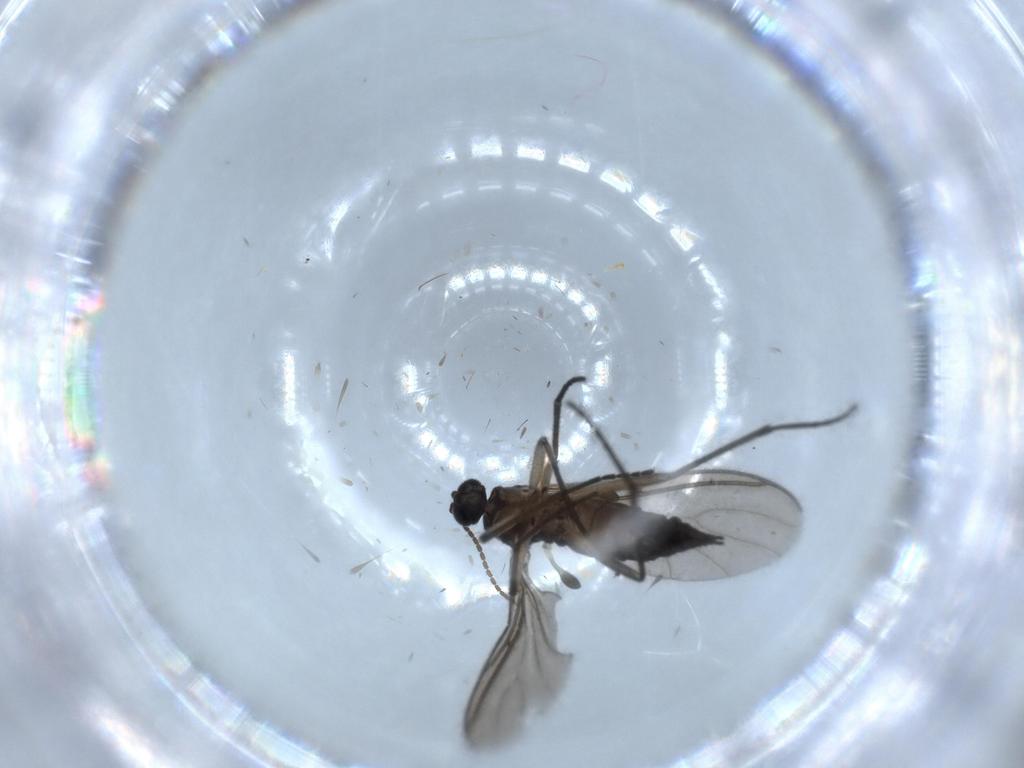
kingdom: Animalia
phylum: Arthropoda
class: Insecta
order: Diptera
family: Sciaridae
